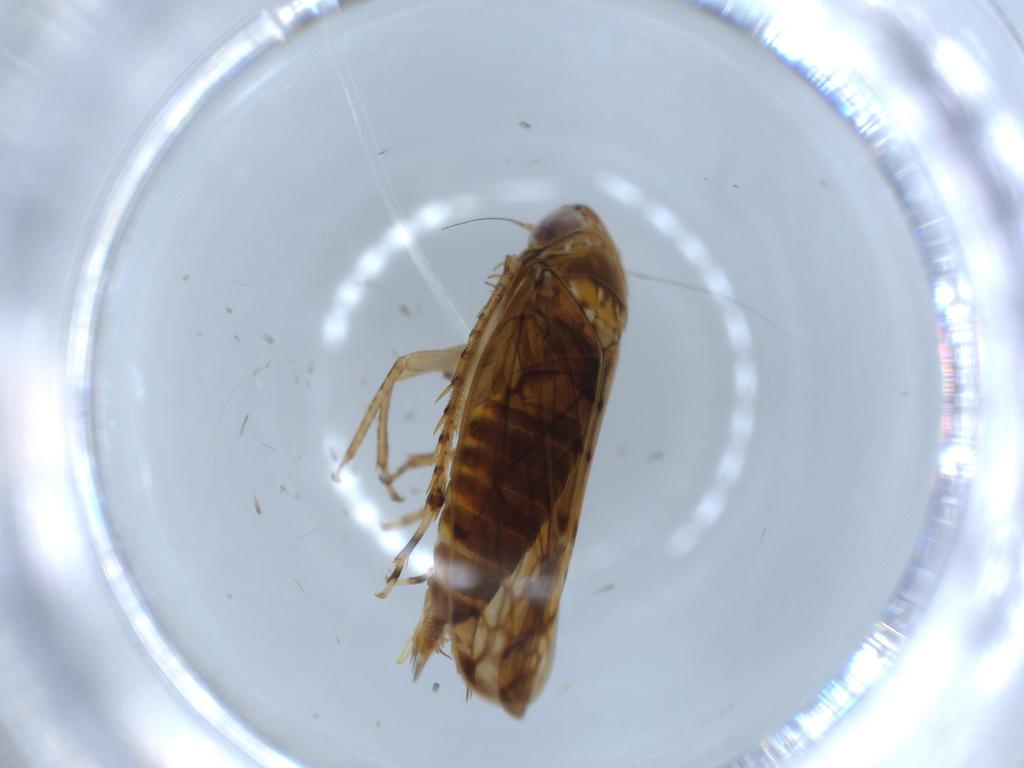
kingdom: Animalia
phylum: Arthropoda
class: Insecta
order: Hemiptera
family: Cicadellidae
